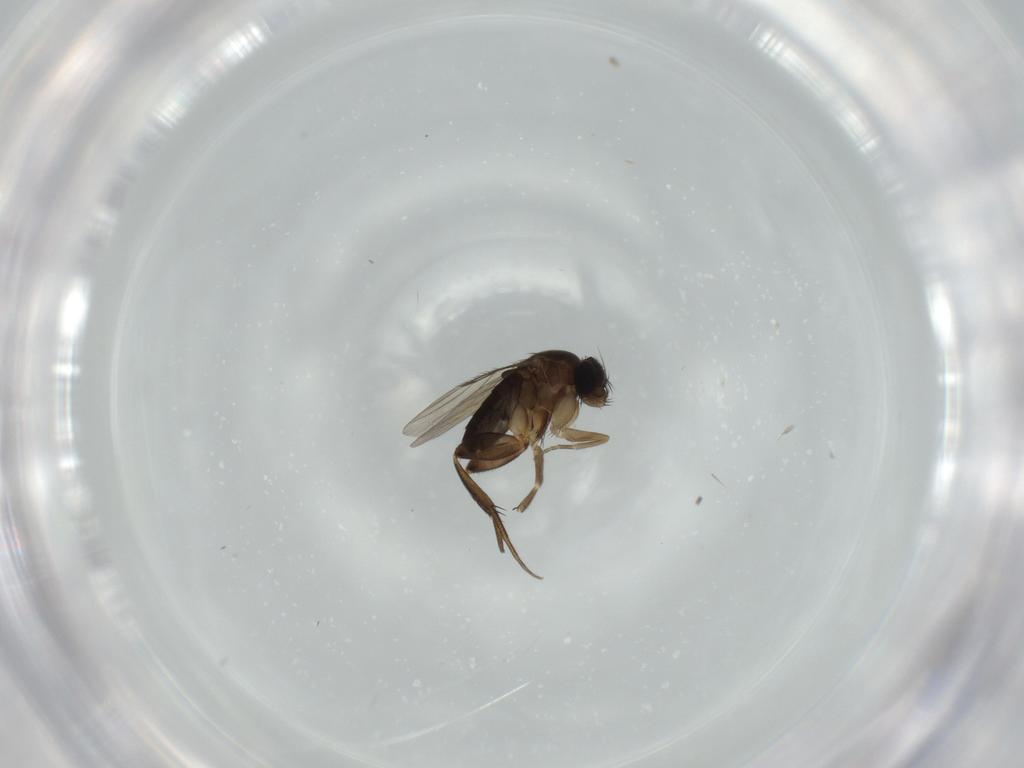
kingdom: Animalia
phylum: Arthropoda
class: Insecta
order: Diptera
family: Phoridae
